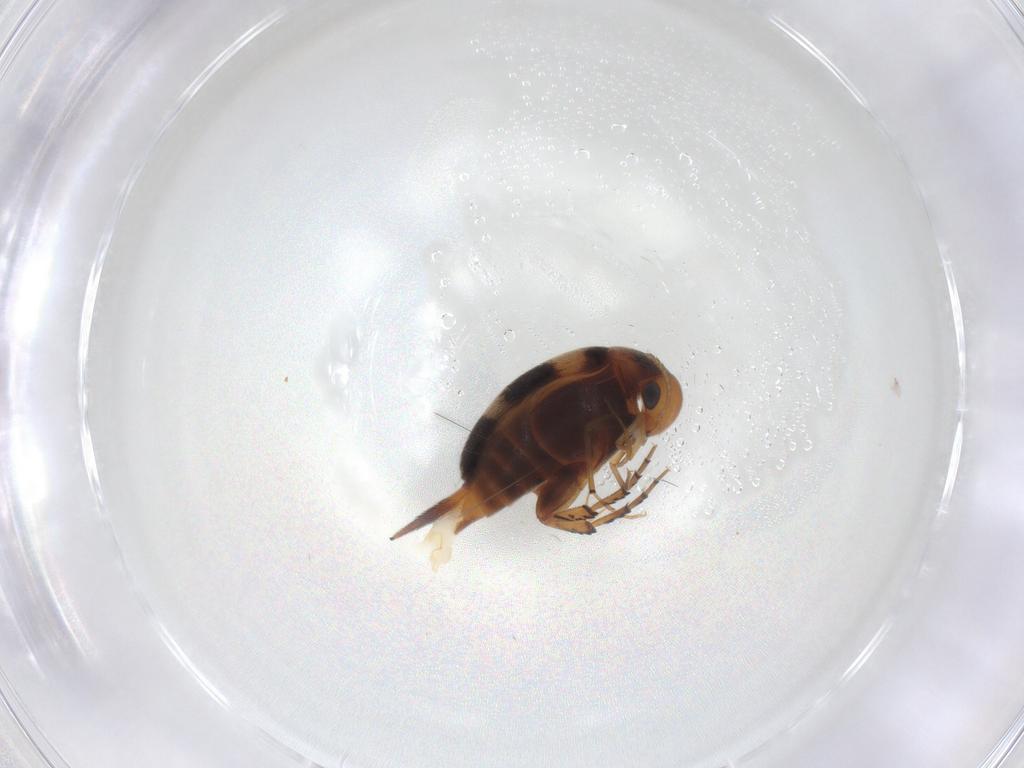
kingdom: Animalia
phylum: Arthropoda
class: Insecta
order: Coleoptera
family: Mordellidae
